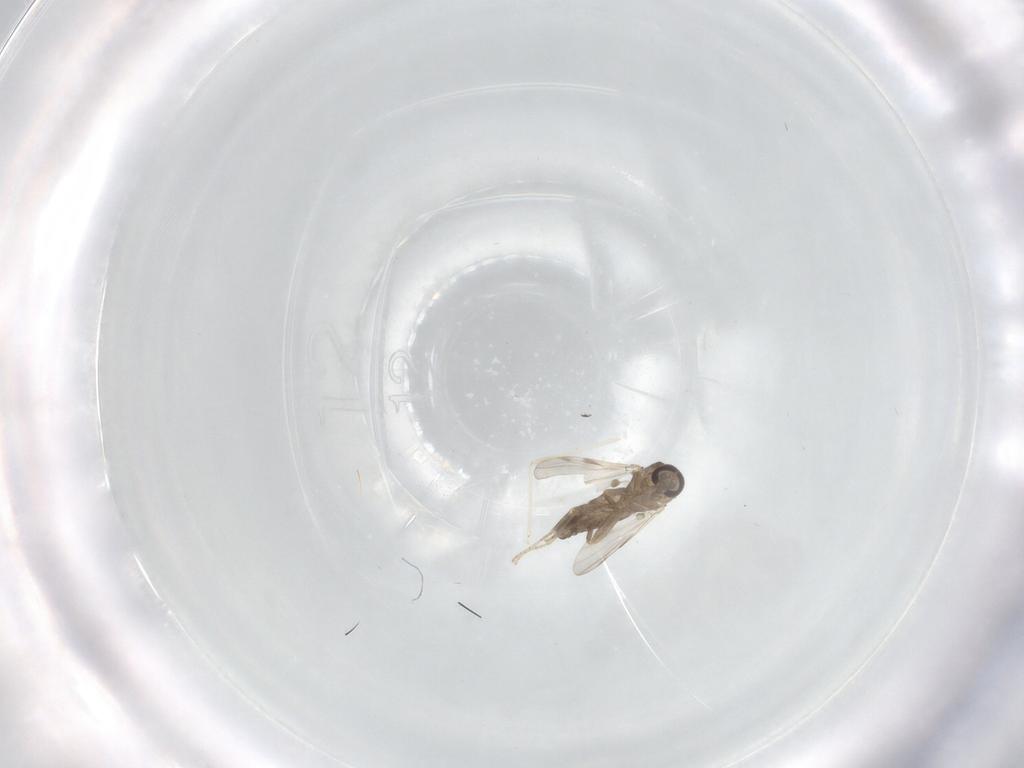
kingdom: Animalia
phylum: Arthropoda
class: Insecta
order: Diptera
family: Ceratopogonidae
